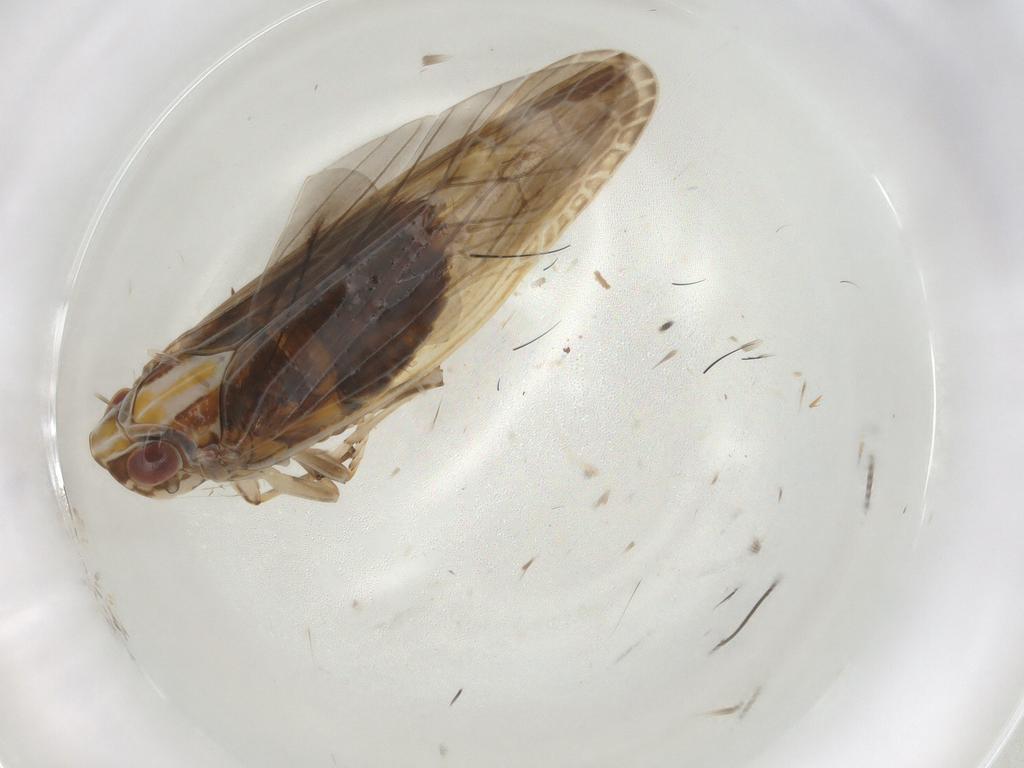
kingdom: Animalia
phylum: Arthropoda
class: Insecta
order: Hemiptera
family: Achilidae
